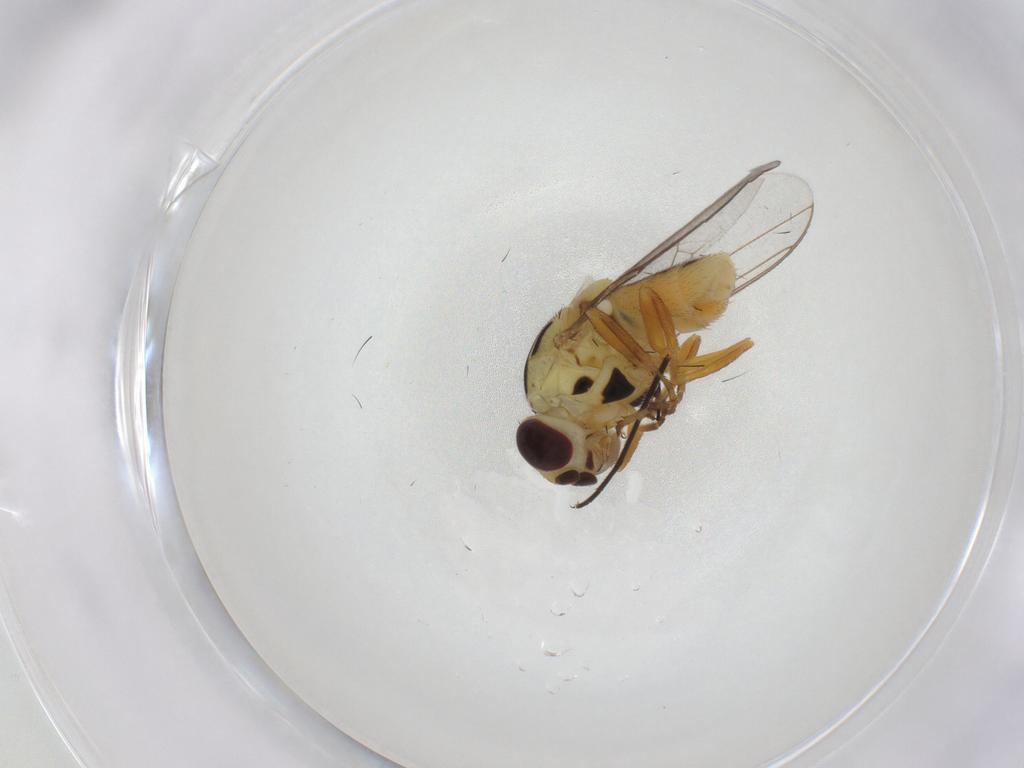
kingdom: Animalia
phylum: Arthropoda
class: Insecta
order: Diptera
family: Chloropidae
